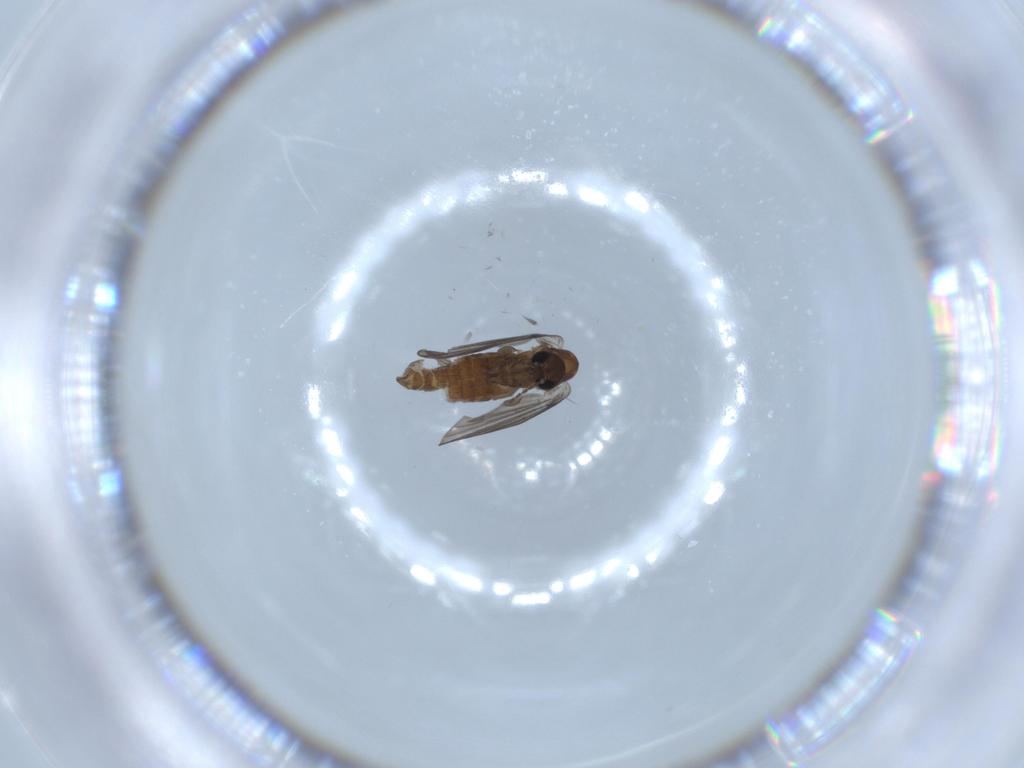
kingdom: Animalia
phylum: Arthropoda
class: Insecta
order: Diptera
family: Psychodidae
